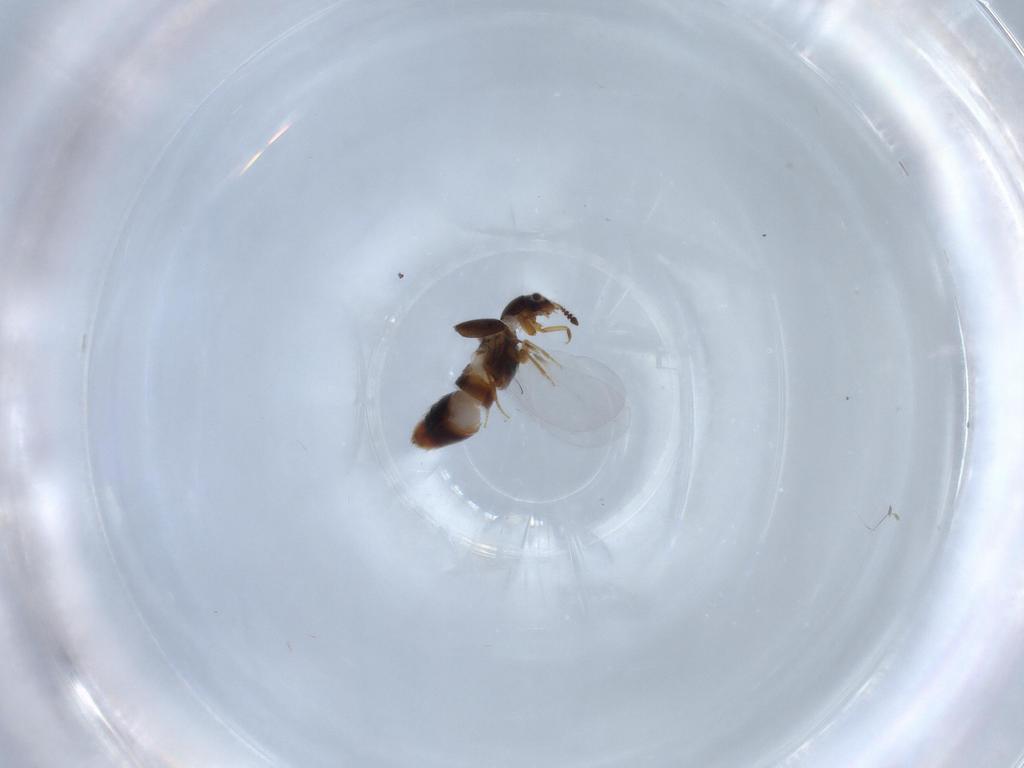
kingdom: Animalia
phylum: Arthropoda
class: Insecta
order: Coleoptera
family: Staphylinidae
